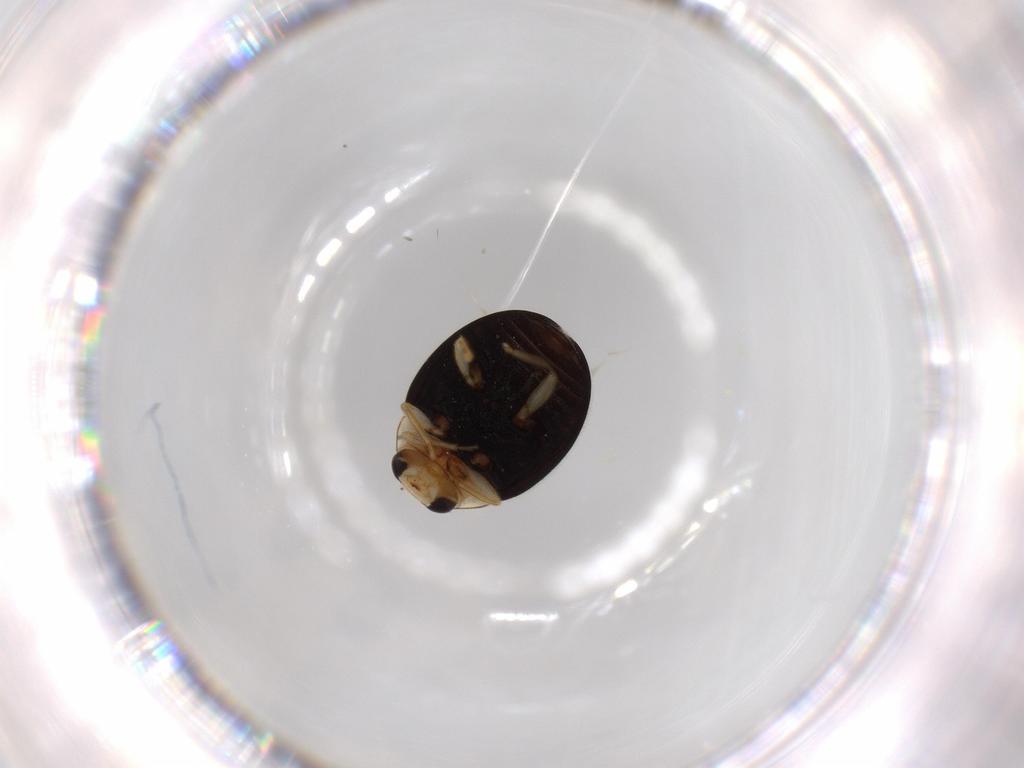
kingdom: Animalia
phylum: Arthropoda
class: Insecta
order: Coleoptera
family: Coccinellidae
